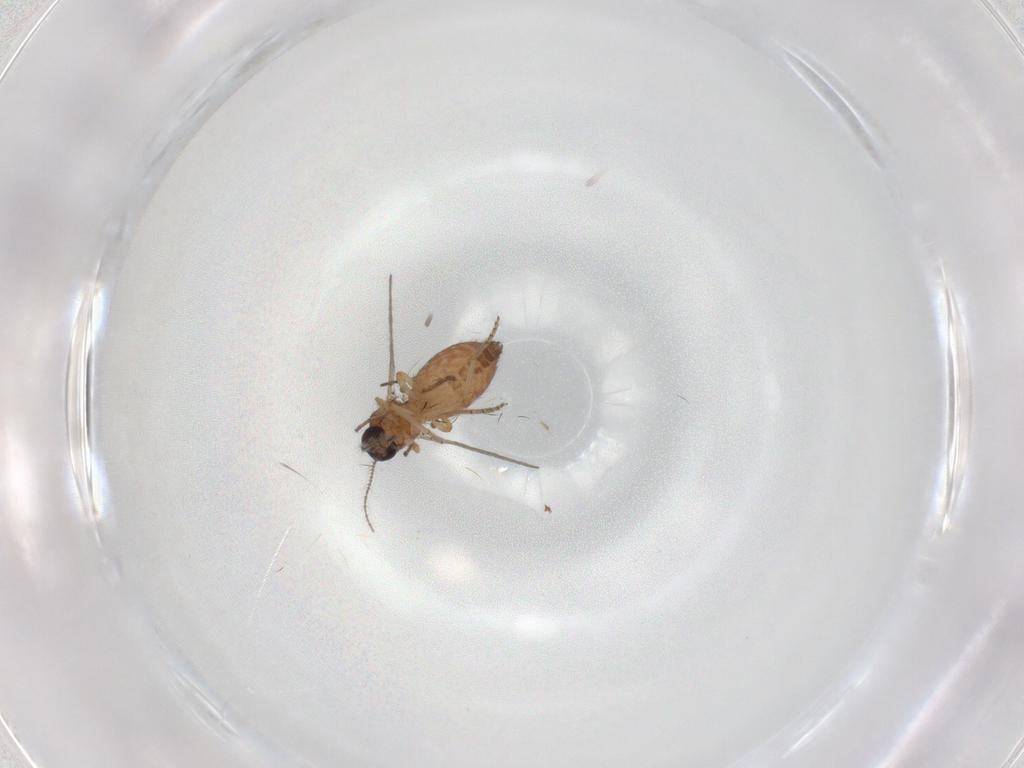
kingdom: Animalia
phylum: Arthropoda
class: Insecta
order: Diptera
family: Ceratopogonidae
